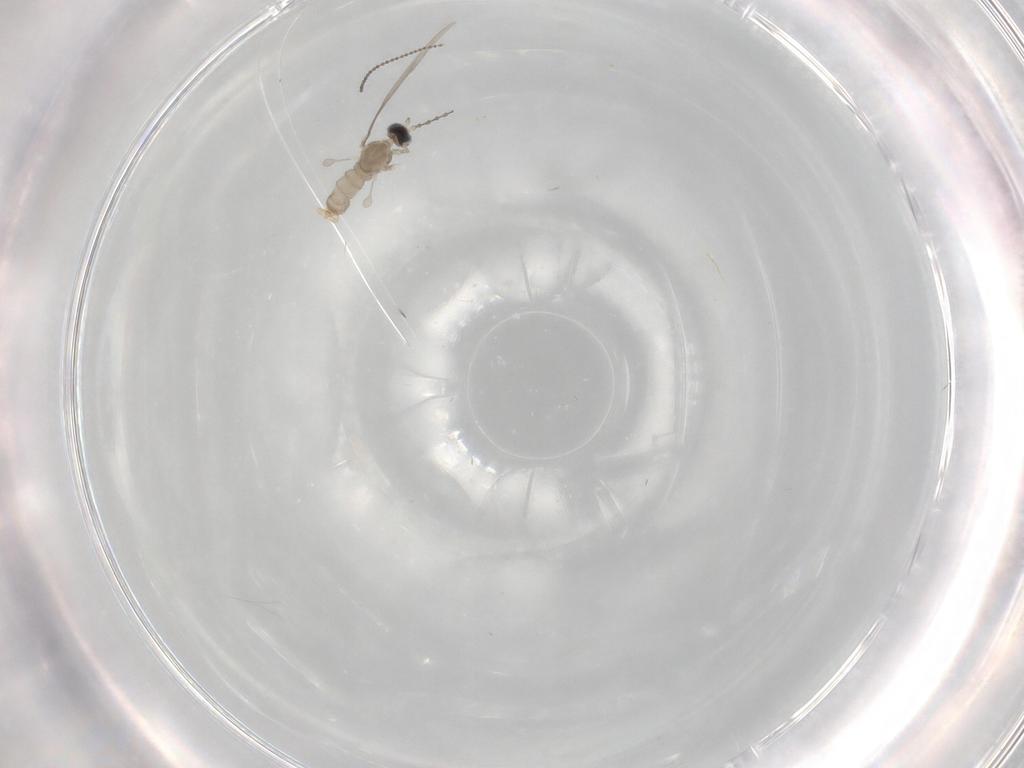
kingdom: Animalia
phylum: Arthropoda
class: Insecta
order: Diptera
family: Cecidomyiidae
